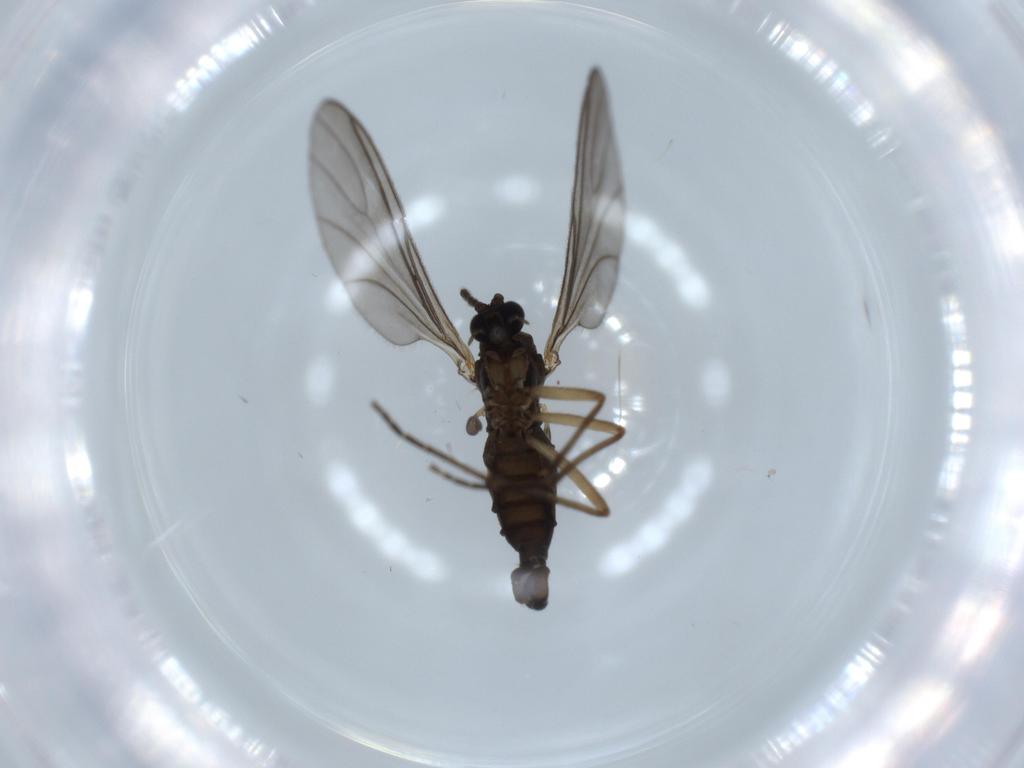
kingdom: Animalia
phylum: Arthropoda
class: Insecta
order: Diptera
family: Sciaridae
